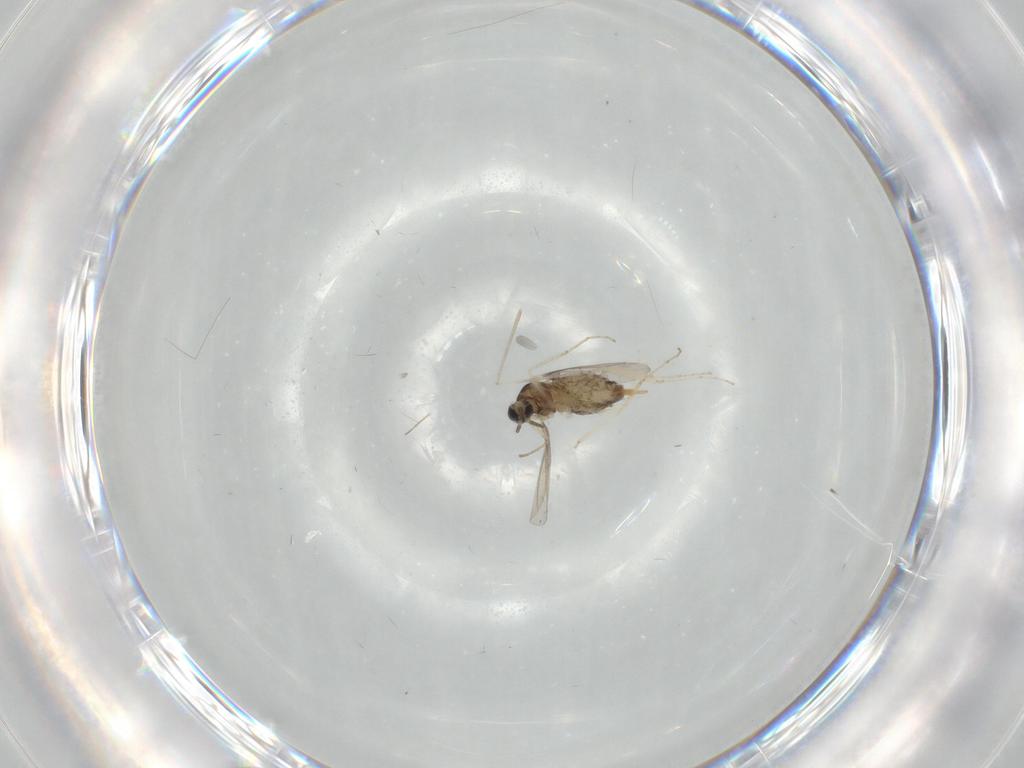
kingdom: Animalia
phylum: Arthropoda
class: Insecta
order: Diptera
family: Cecidomyiidae
